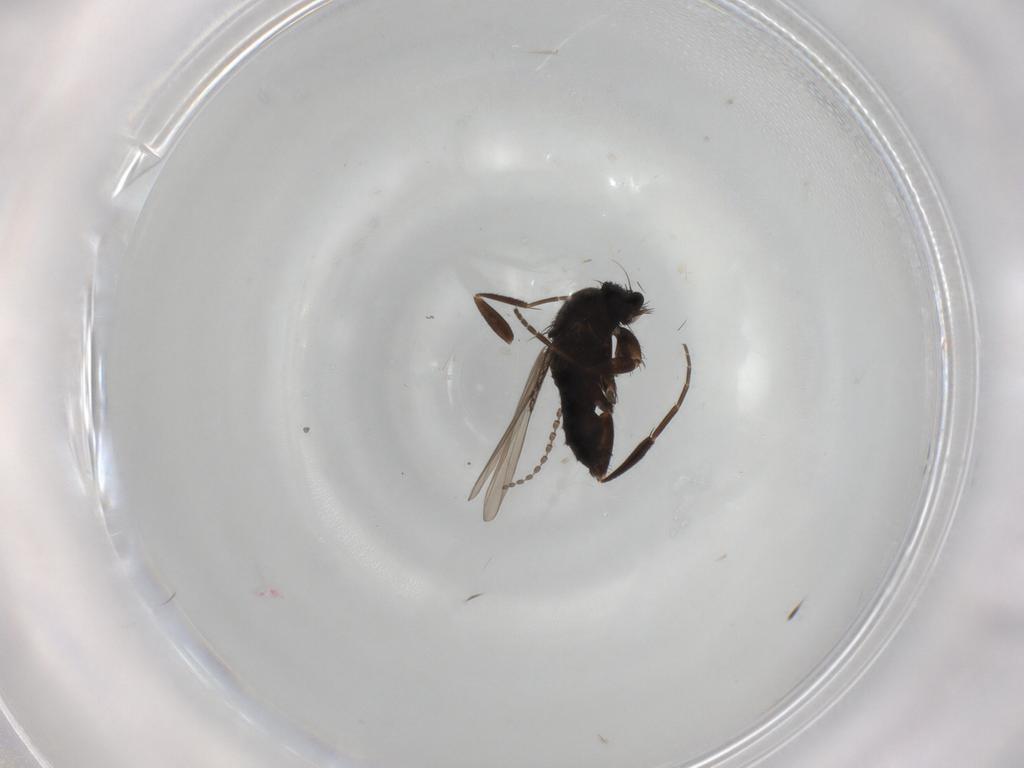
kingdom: Animalia
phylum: Arthropoda
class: Insecta
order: Diptera
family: Phoridae
